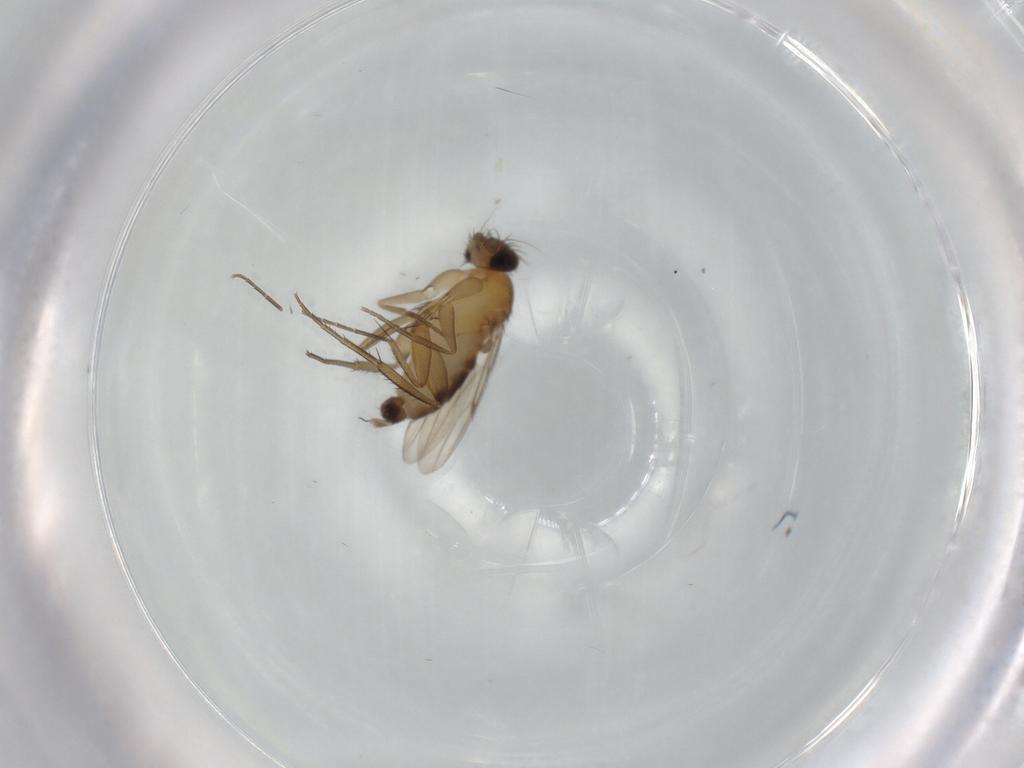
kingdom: Animalia
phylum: Arthropoda
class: Insecta
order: Diptera
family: Phoridae
